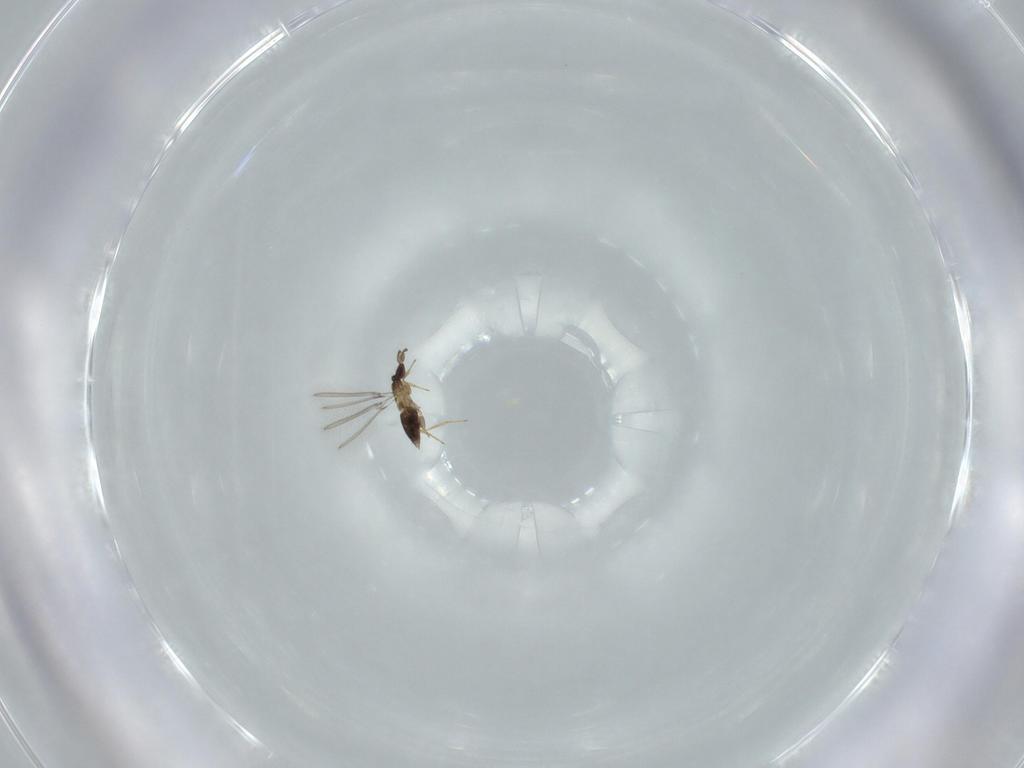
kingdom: Animalia
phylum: Arthropoda
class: Insecta
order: Hymenoptera
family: Mymaridae
